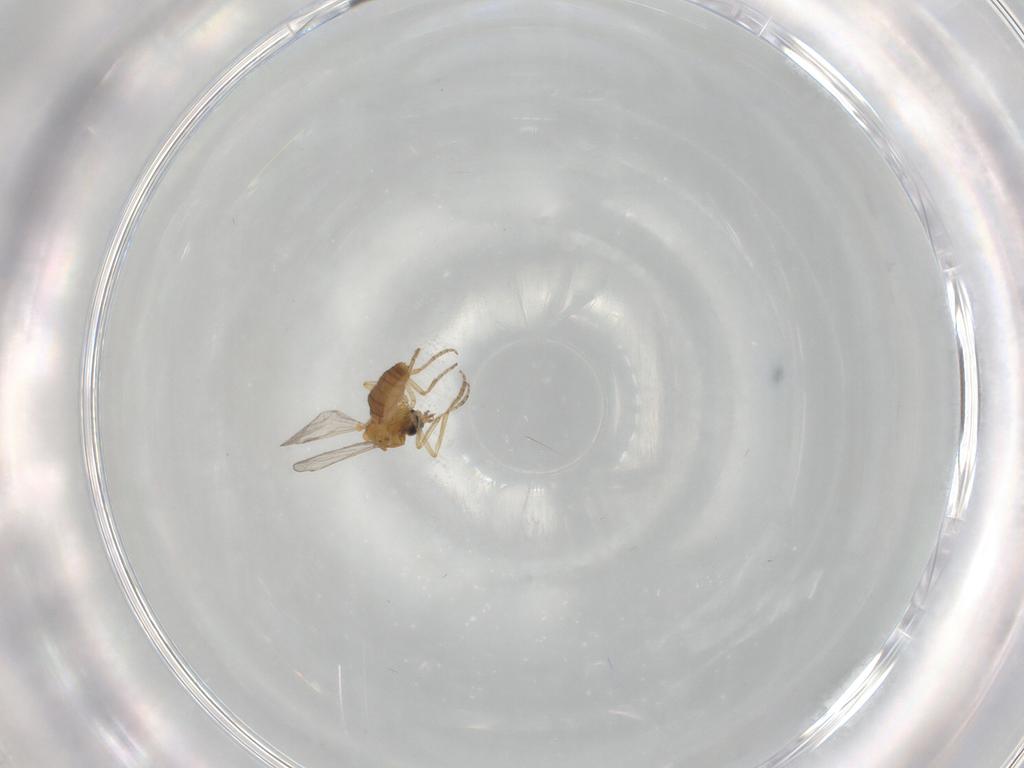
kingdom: Animalia
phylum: Arthropoda
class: Insecta
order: Diptera
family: Ceratopogonidae
